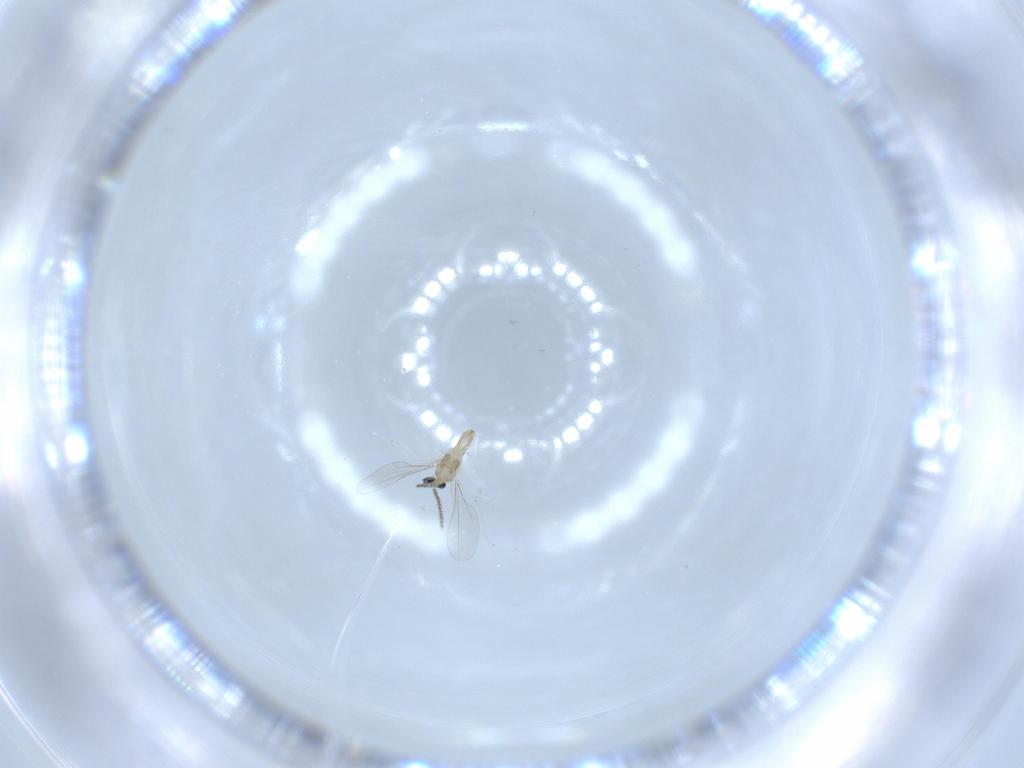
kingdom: Animalia
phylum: Arthropoda
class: Insecta
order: Diptera
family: Cecidomyiidae
